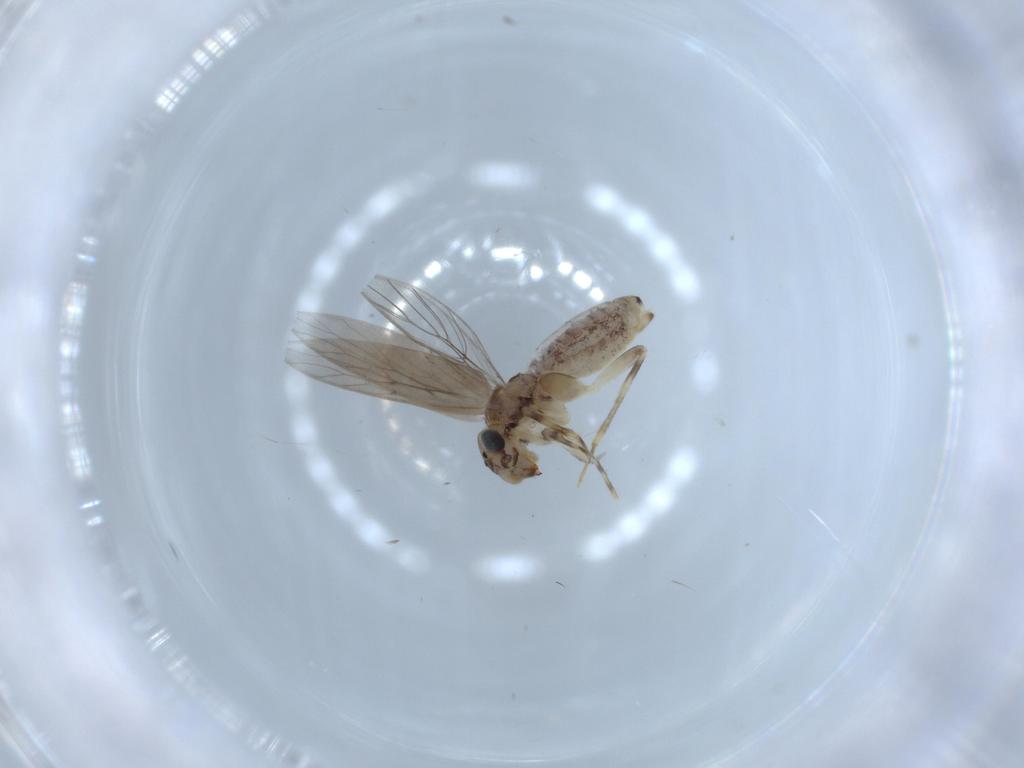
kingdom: Animalia
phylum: Arthropoda
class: Insecta
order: Psocodea
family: Lepidopsocidae
